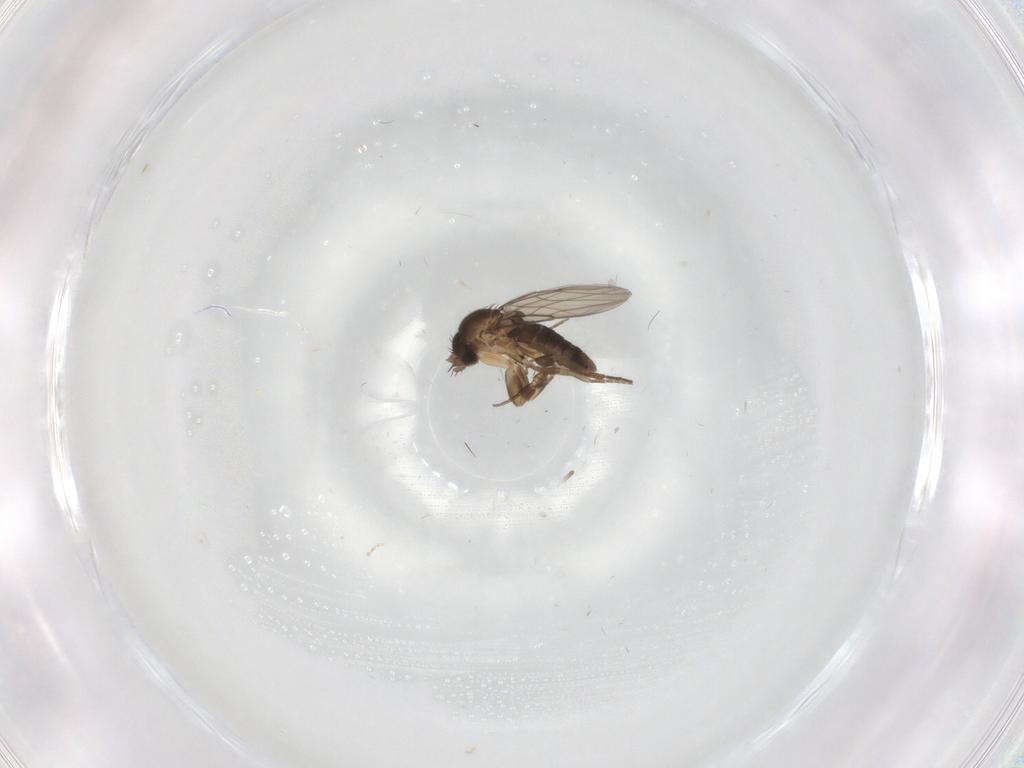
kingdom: Animalia
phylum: Arthropoda
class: Insecta
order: Diptera
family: Phoridae
